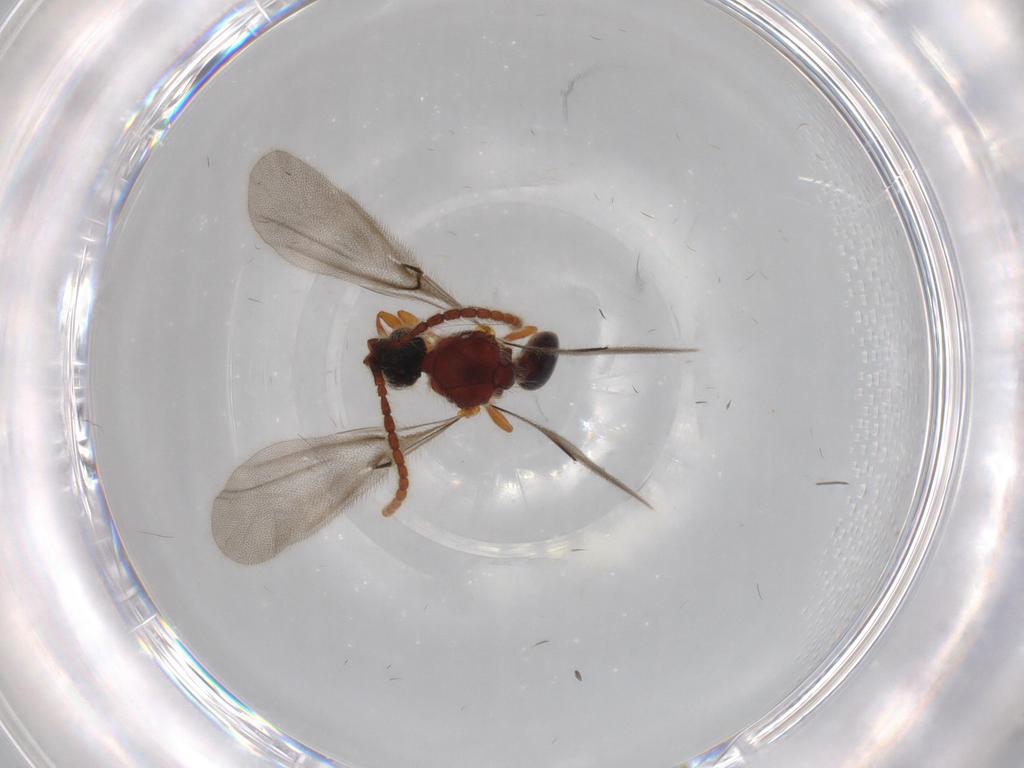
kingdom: Animalia
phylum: Arthropoda
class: Insecta
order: Hymenoptera
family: Diapriidae
